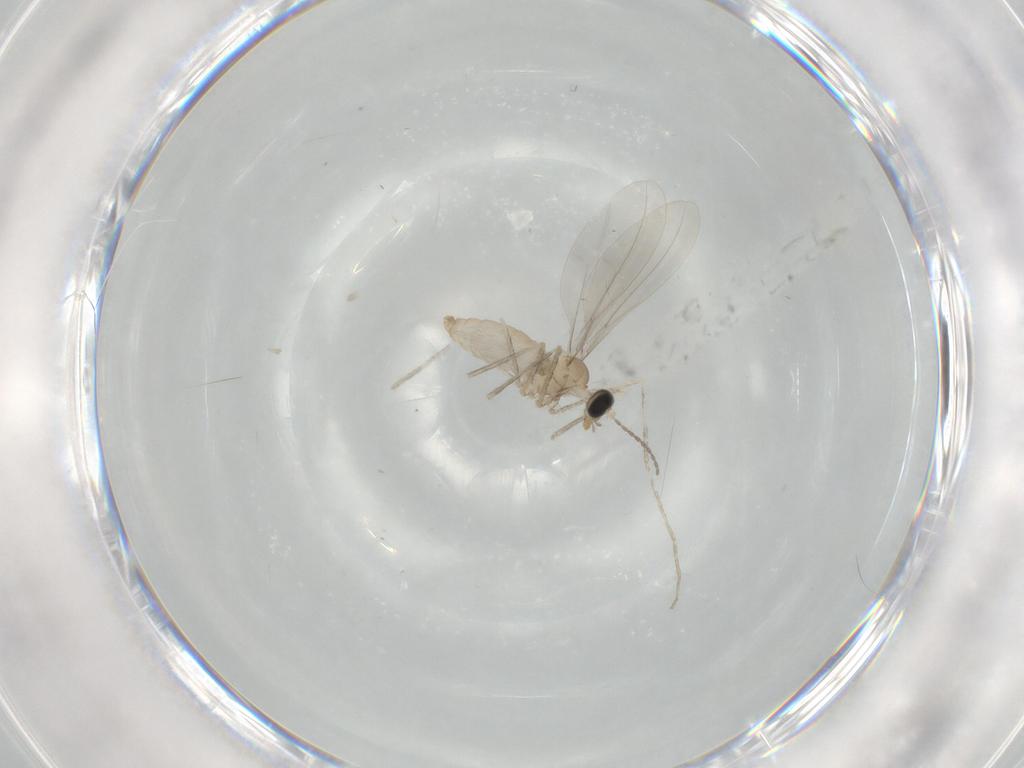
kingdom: Animalia
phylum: Arthropoda
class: Insecta
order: Diptera
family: Cecidomyiidae
